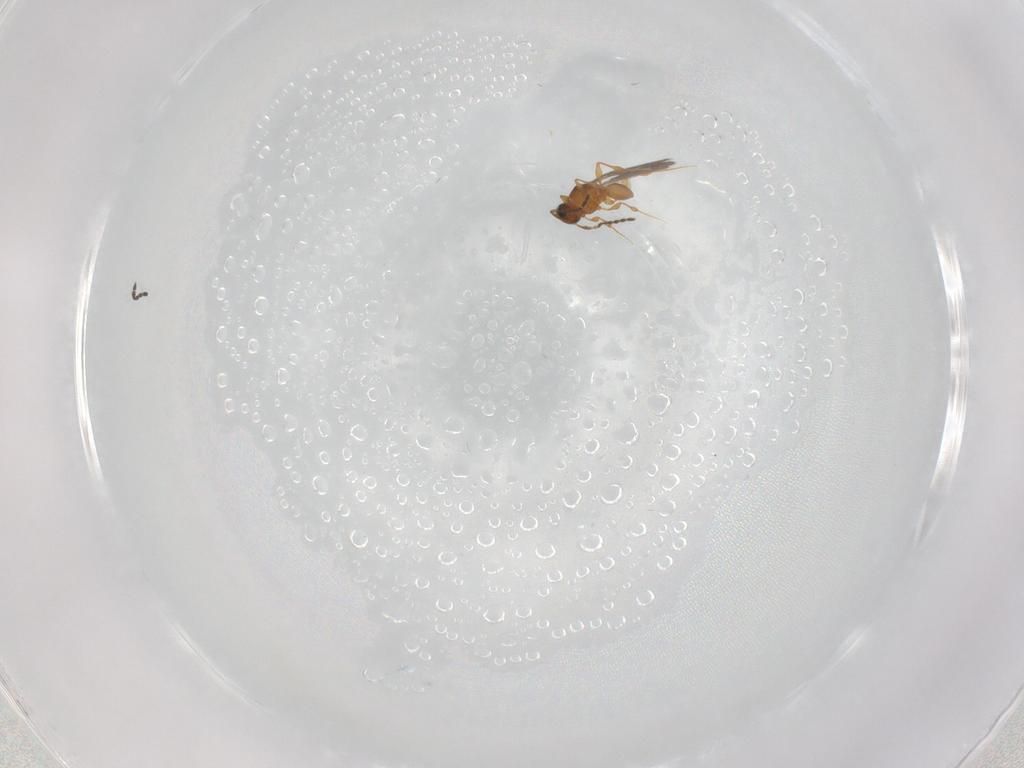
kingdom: Animalia
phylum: Arthropoda
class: Insecta
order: Hymenoptera
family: Platygastridae
